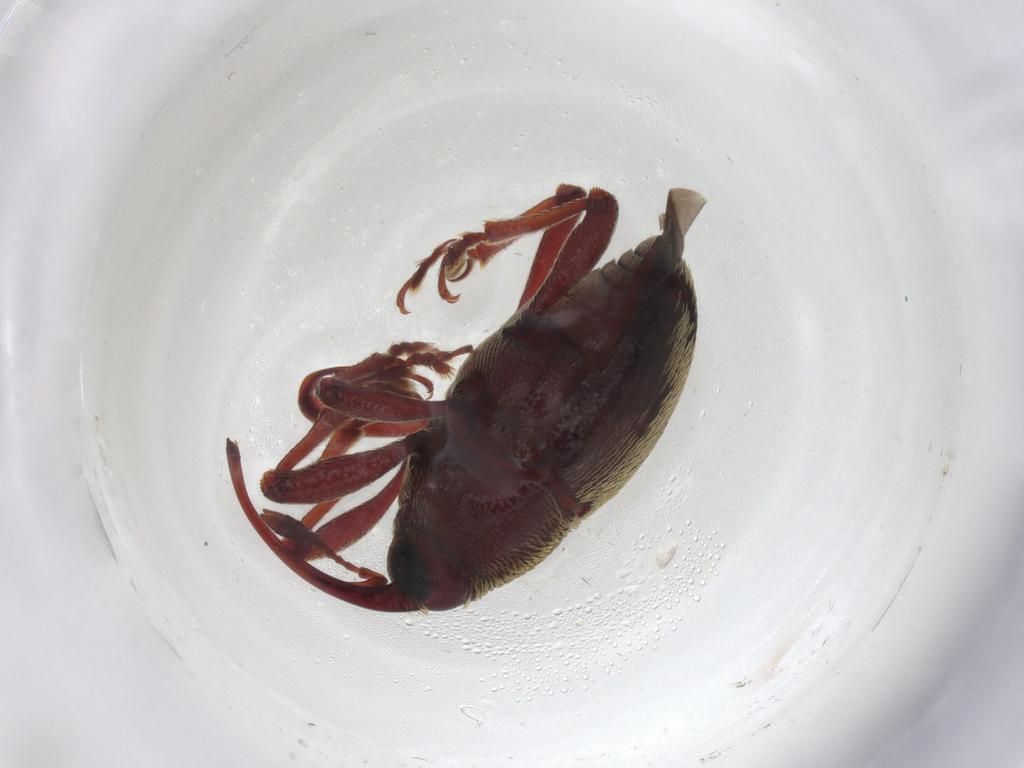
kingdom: Animalia
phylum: Arthropoda
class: Insecta
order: Coleoptera
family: Curculionidae
